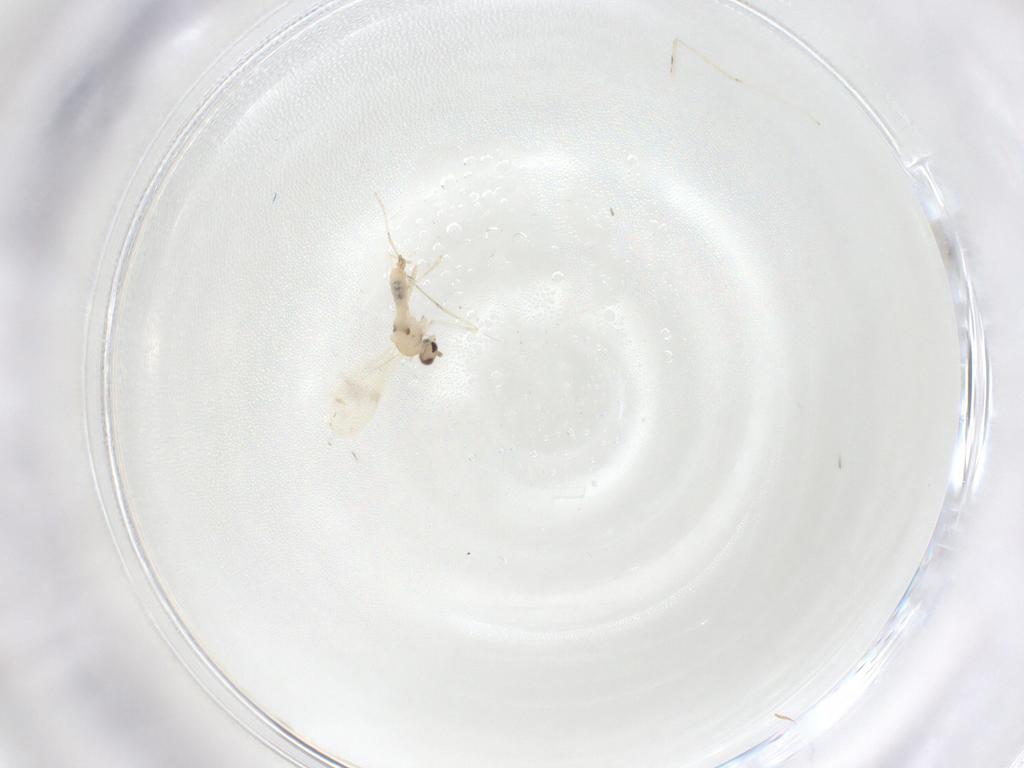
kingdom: Animalia
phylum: Arthropoda
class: Insecta
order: Diptera
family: Cecidomyiidae
